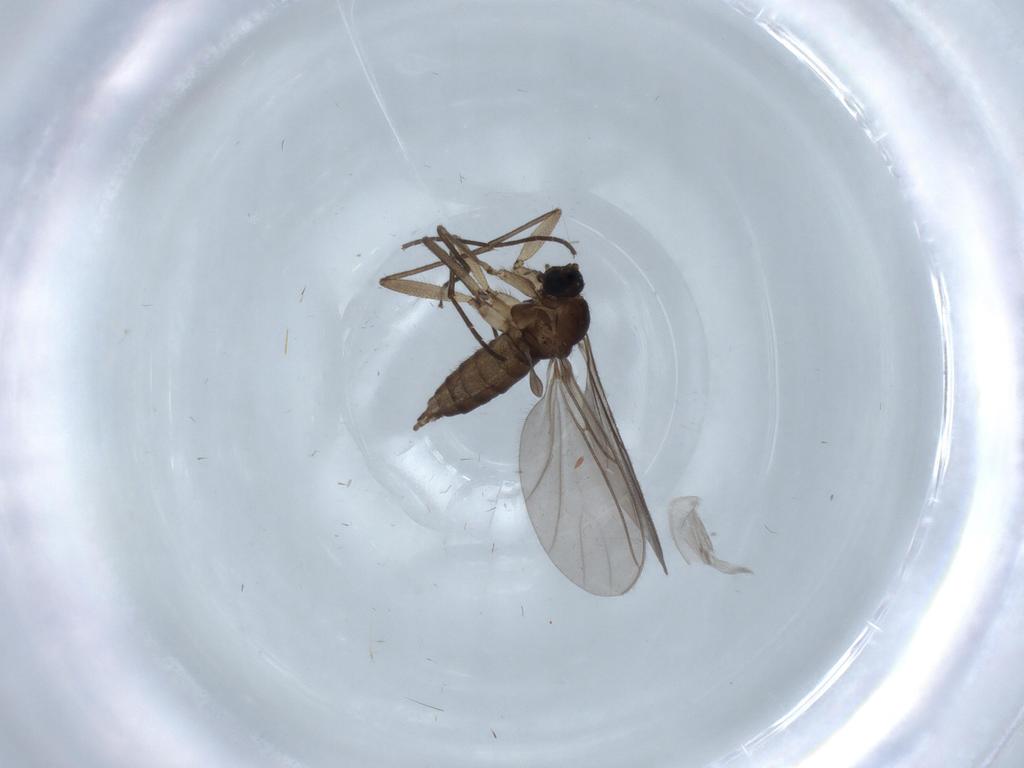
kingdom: Animalia
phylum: Arthropoda
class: Insecta
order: Diptera
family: Sciaridae
